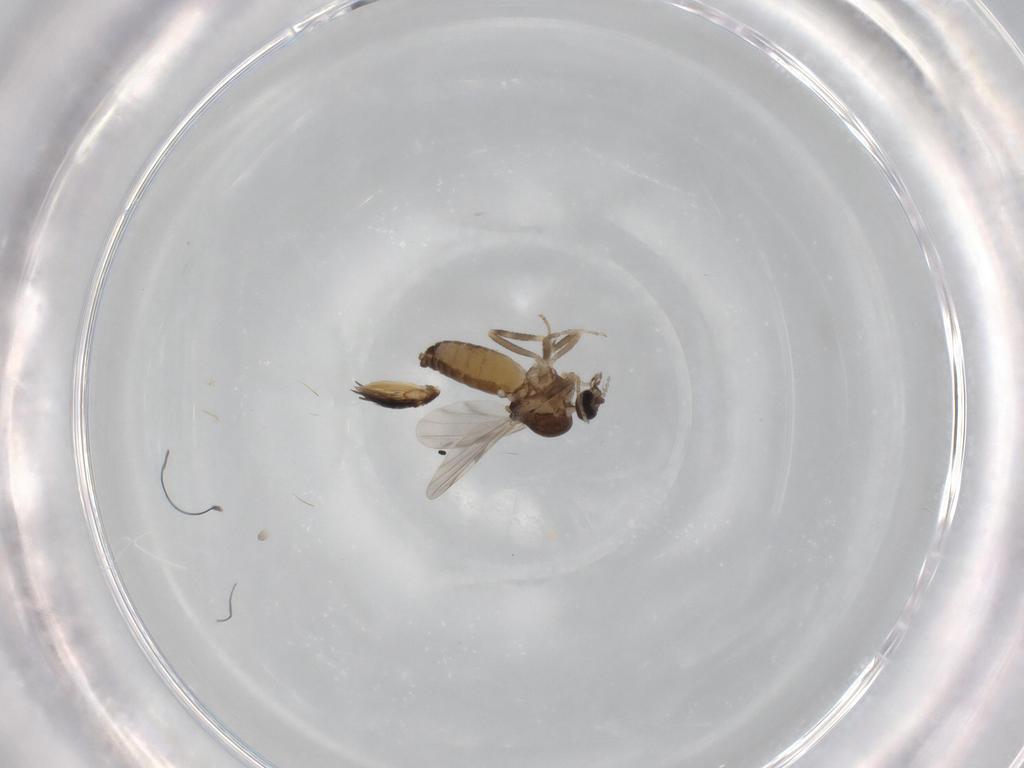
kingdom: Animalia
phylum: Arthropoda
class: Insecta
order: Diptera
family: Ceratopogonidae
